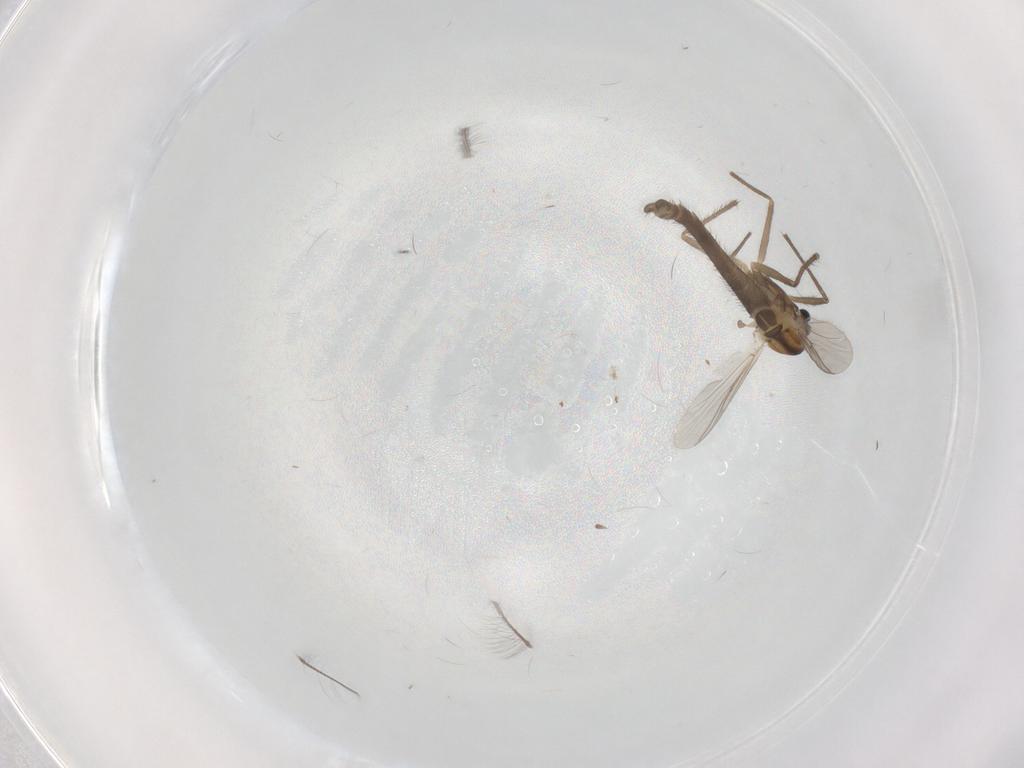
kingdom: Animalia
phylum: Arthropoda
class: Insecta
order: Diptera
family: Chironomidae
